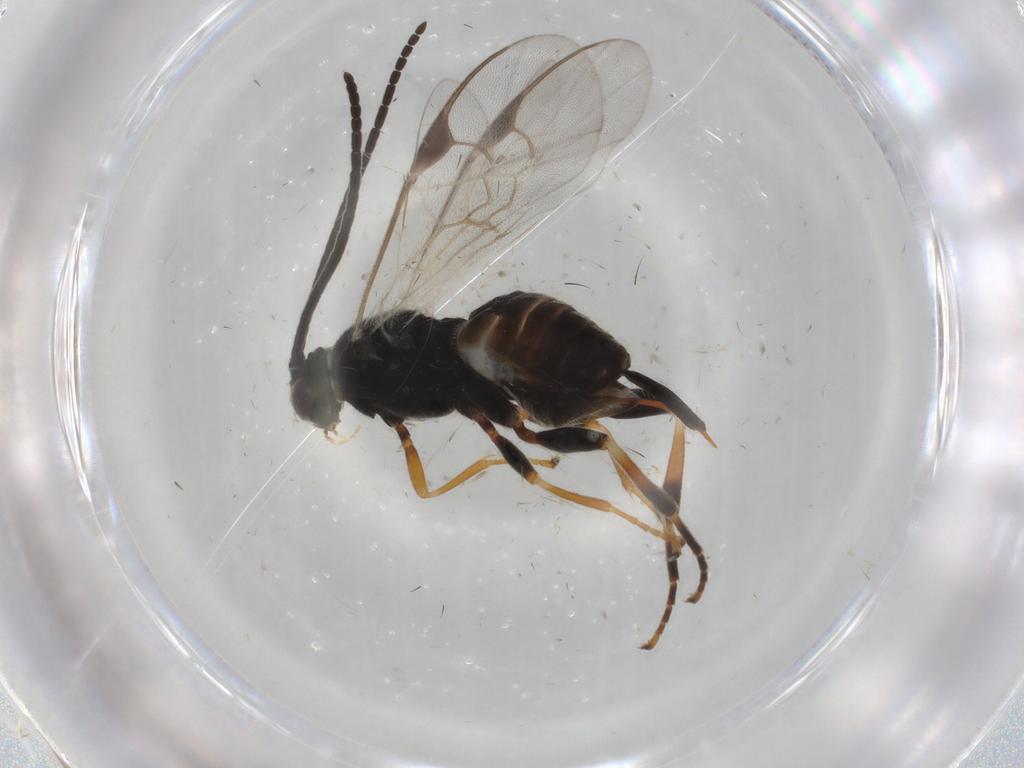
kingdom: Animalia
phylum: Arthropoda
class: Insecta
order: Hymenoptera
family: Braconidae
